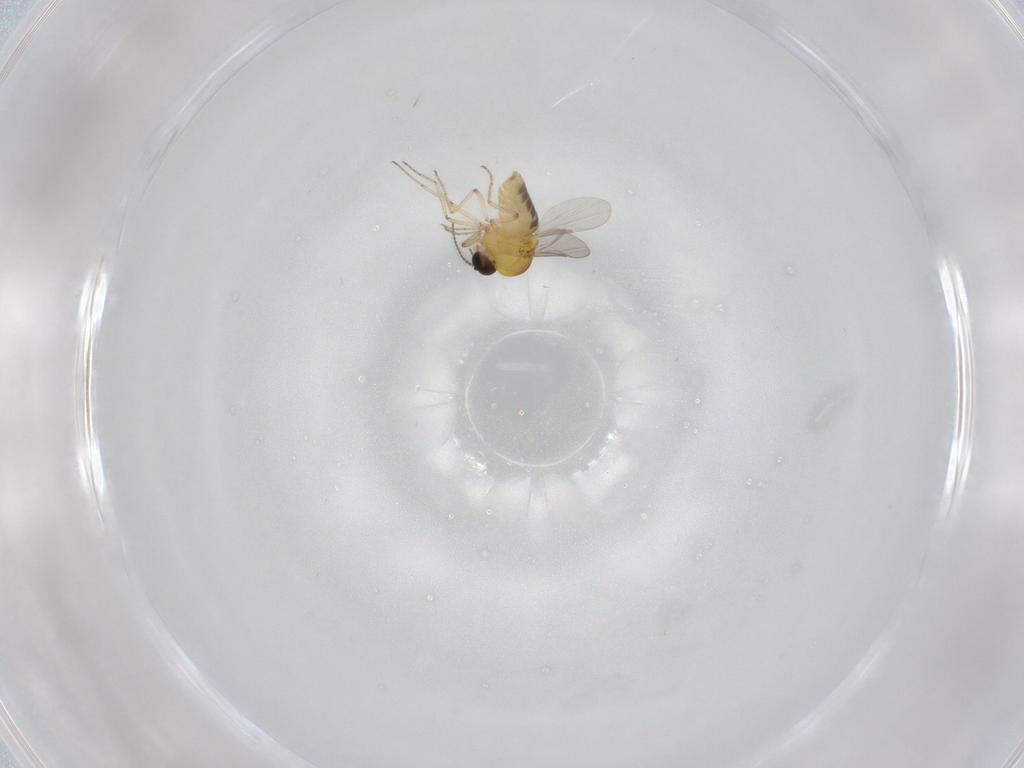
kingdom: Animalia
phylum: Arthropoda
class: Insecta
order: Diptera
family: Ceratopogonidae
